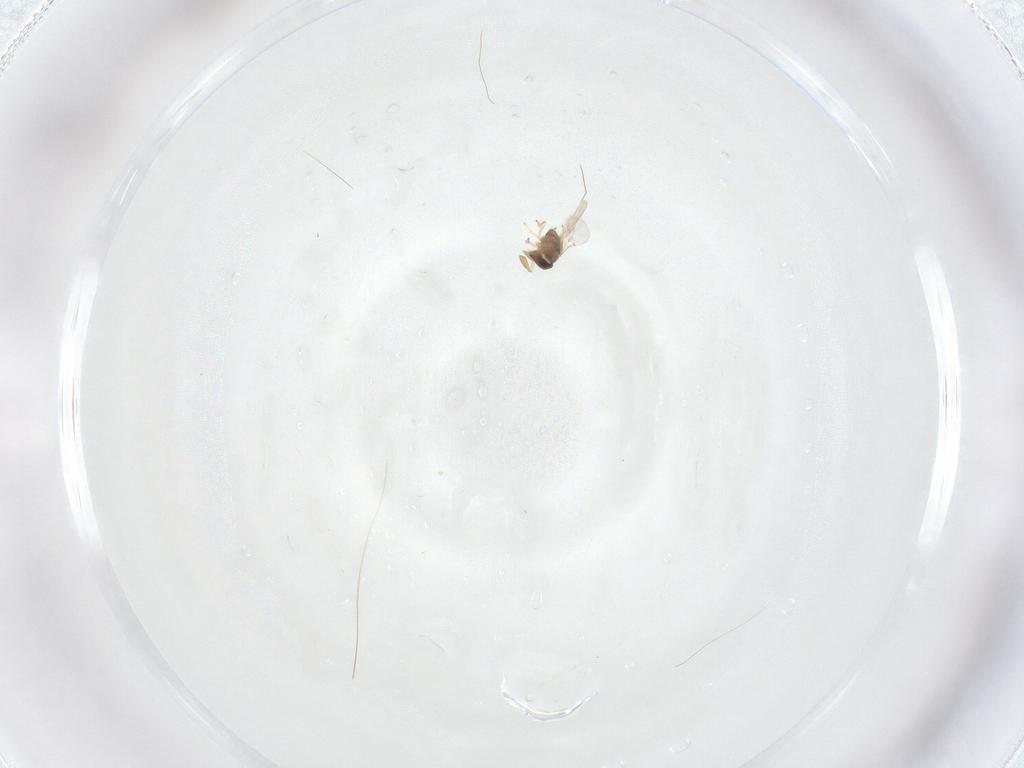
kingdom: Animalia
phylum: Arthropoda
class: Insecta
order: Hymenoptera
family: Encyrtidae
